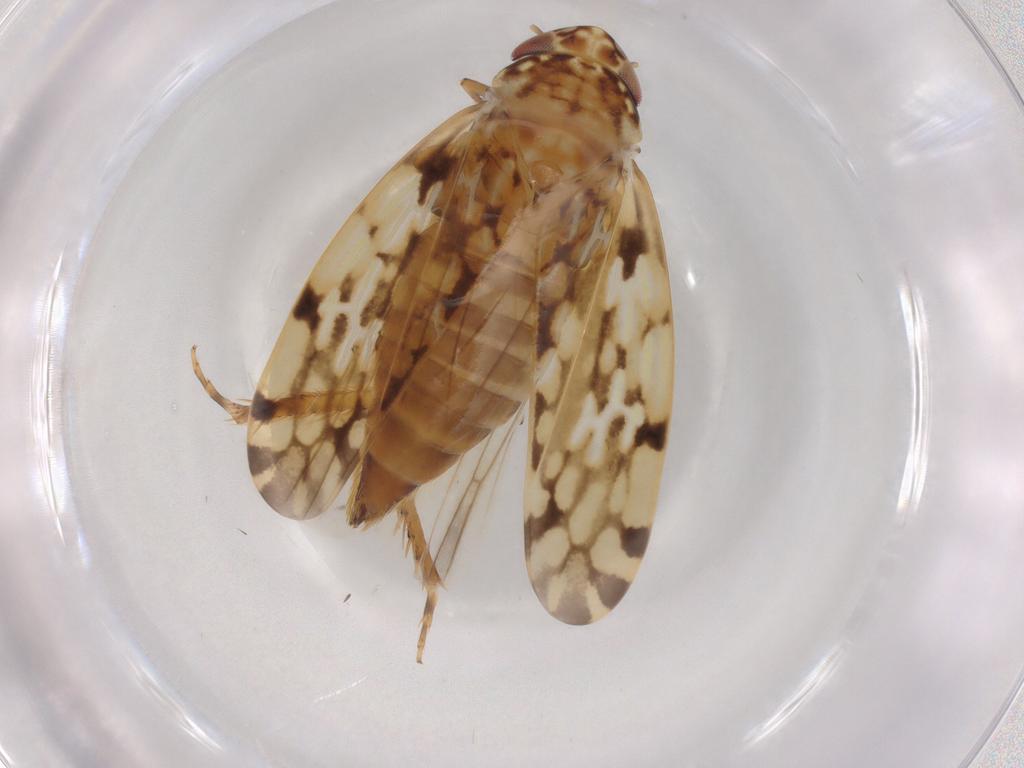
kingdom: Animalia
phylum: Arthropoda
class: Insecta
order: Hemiptera
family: Cicadellidae
